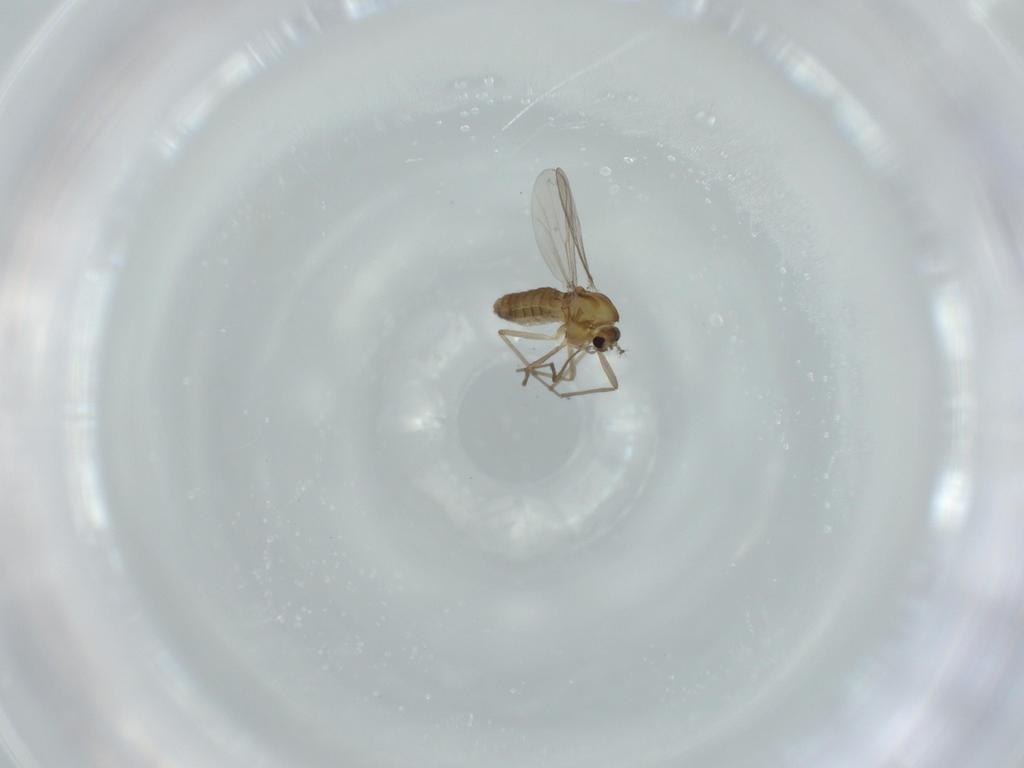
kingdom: Animalia
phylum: Arthropoda
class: Insecta
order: Diptera
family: Chironomidae
